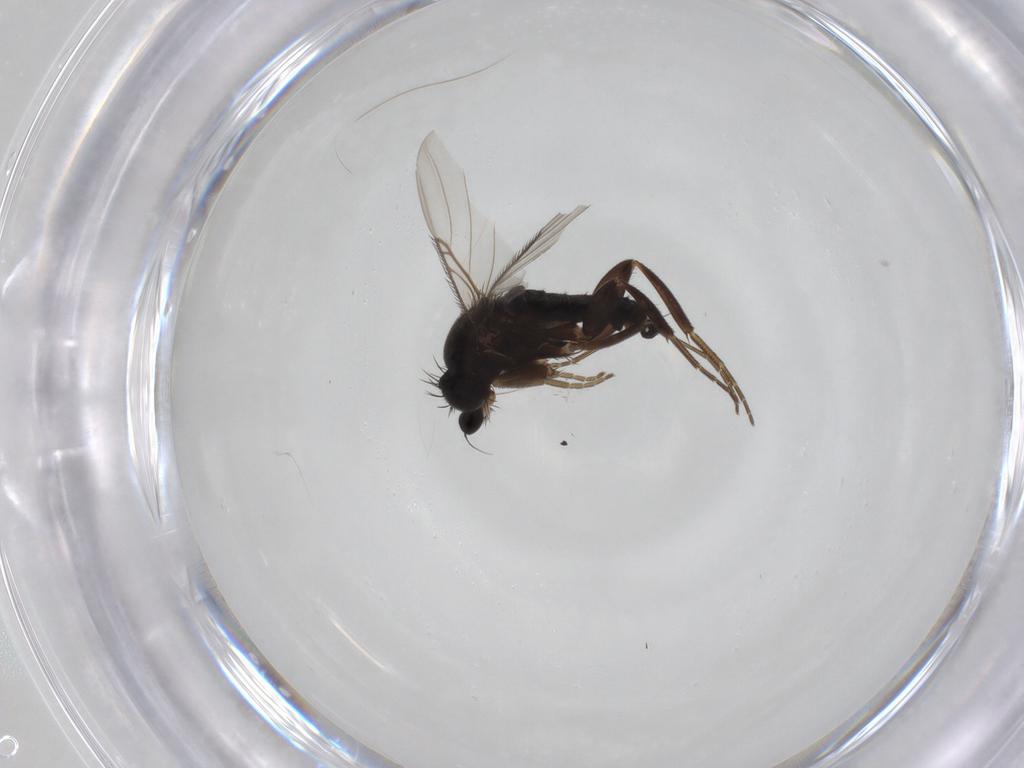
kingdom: Animalia
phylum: Arthropoda
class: Insecta
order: Diptera
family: Phoridae
